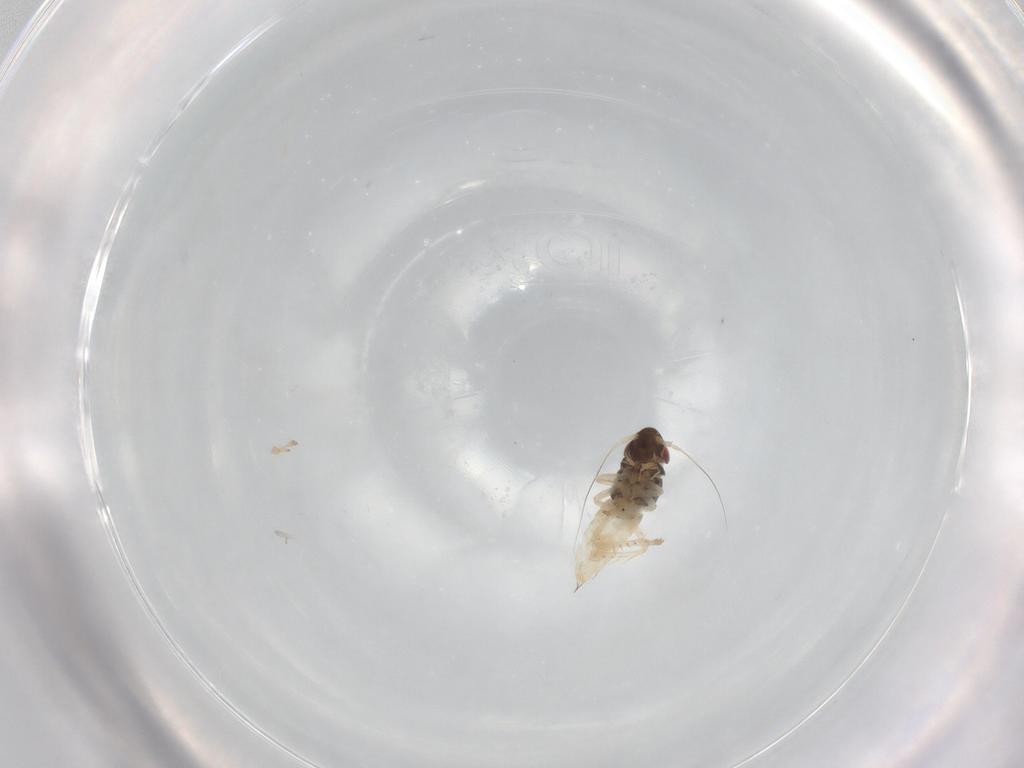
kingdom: Animalia
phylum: Arthropoda
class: Insecta
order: Hemiptera
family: Cicadellidae
